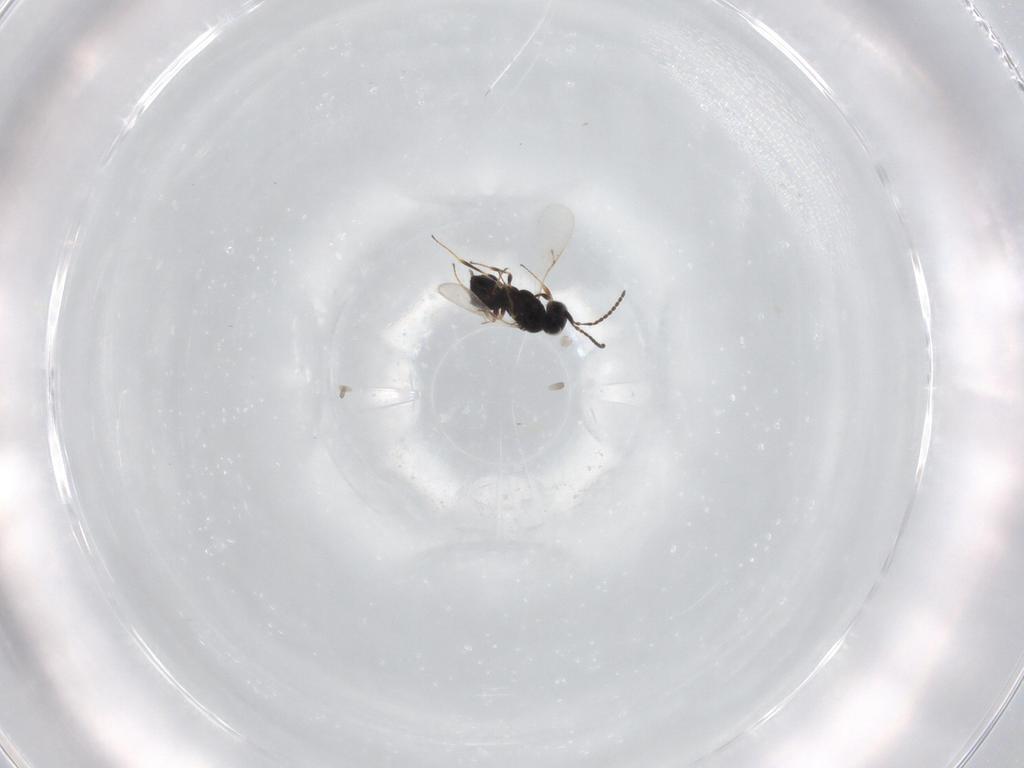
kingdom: Animalia
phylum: Arthropoda
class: Insecta
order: Hymenoptera
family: Scelionidae
